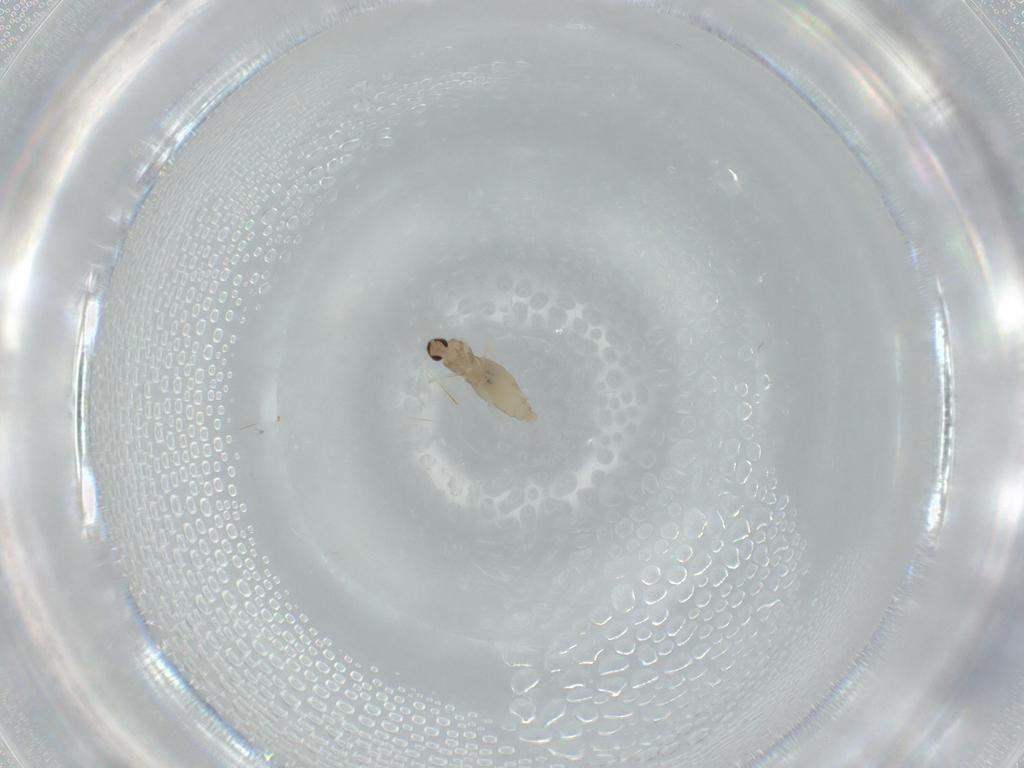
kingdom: Animalia
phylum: Arthropoda
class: Insecta
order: Diptera
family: Cecidomyiidae
